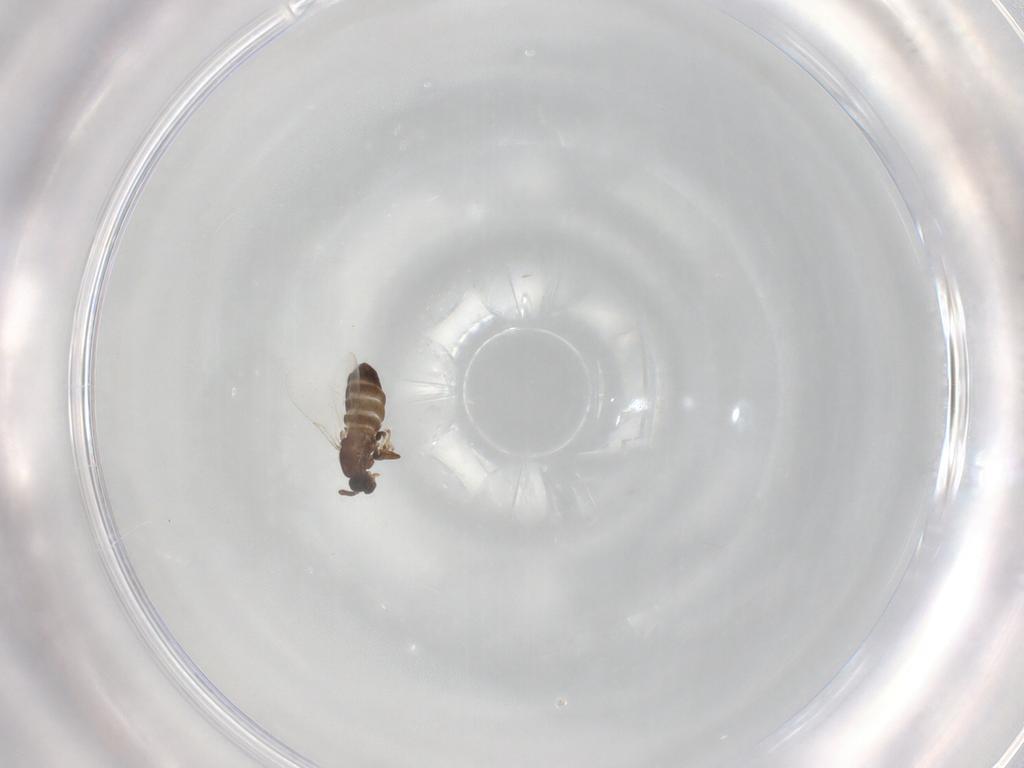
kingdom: Animalia
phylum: Arthropoda
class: Insecta
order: Diptera
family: Scatopsidae
